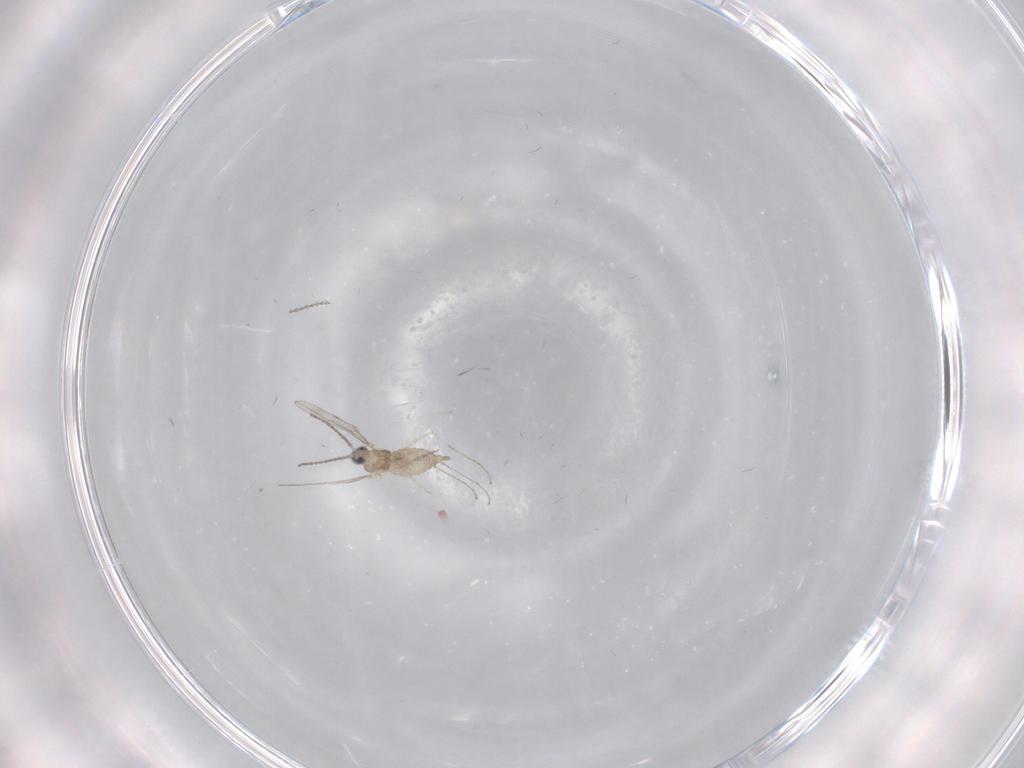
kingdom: Animalia
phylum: Arthropoda
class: Insecta
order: Diptera
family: Cecidomyiidae
